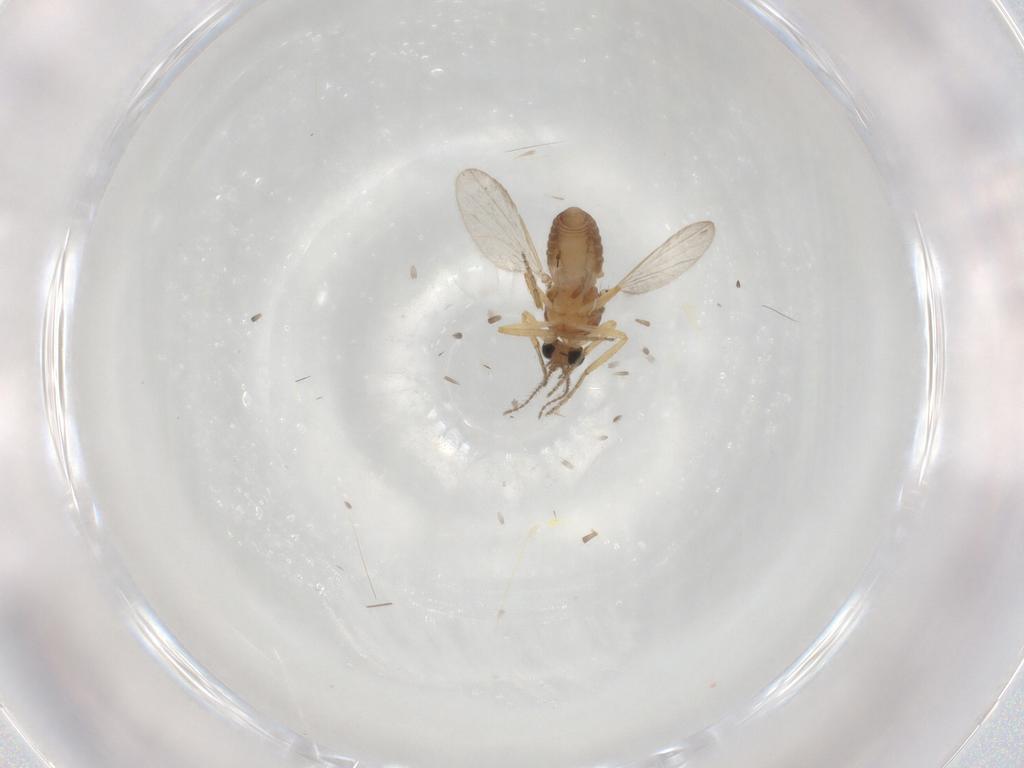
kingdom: Animalia
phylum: Arthropoda
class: Insecta
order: Diptera
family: Ceratopogonidae
